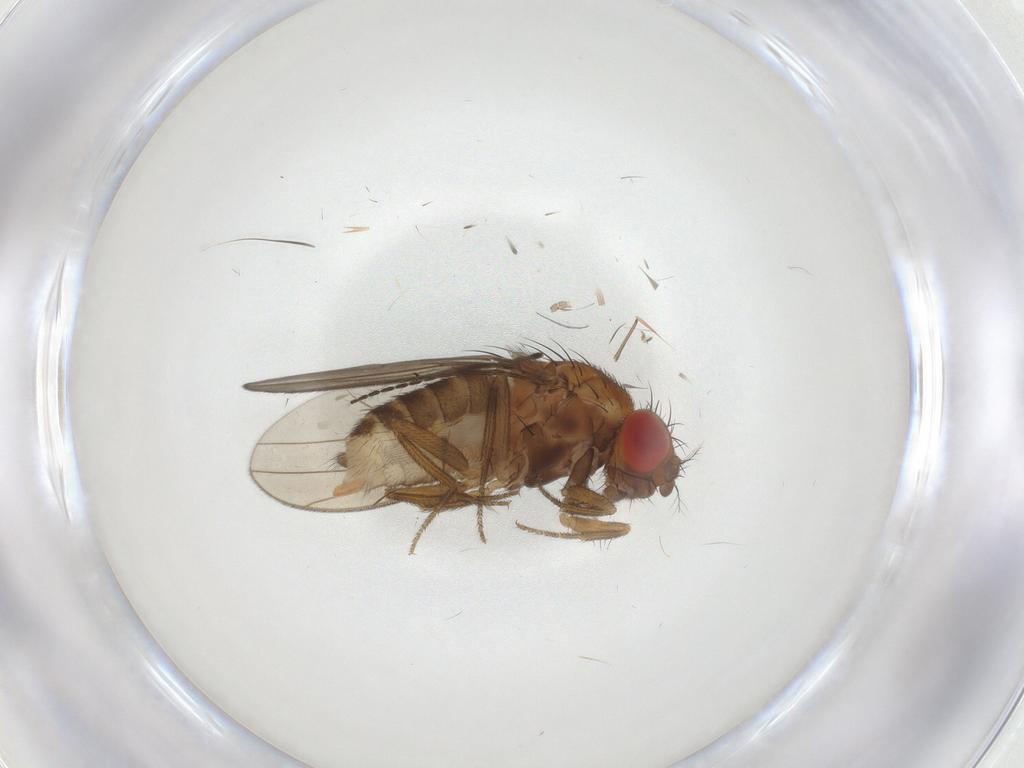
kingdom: Animalia
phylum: Arthropoda
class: Insecta
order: Diptera
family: Drosophilidae
